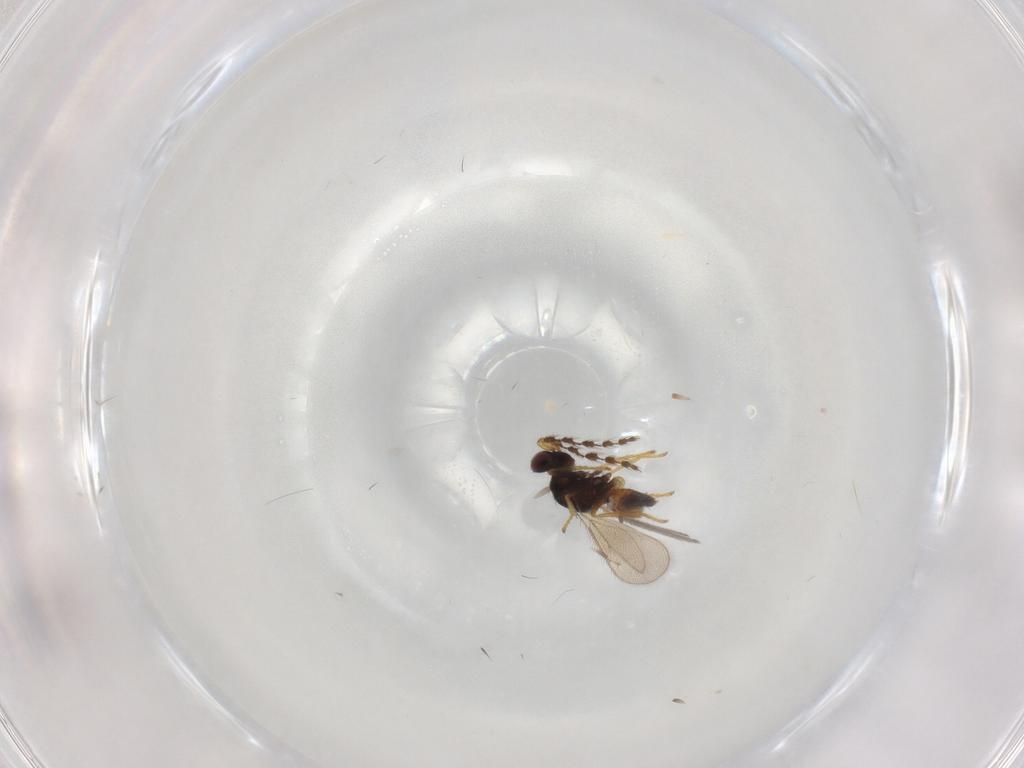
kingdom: Animalia
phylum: Arthropoda
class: Insecta
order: Hymenoptera
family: Eulophidae
